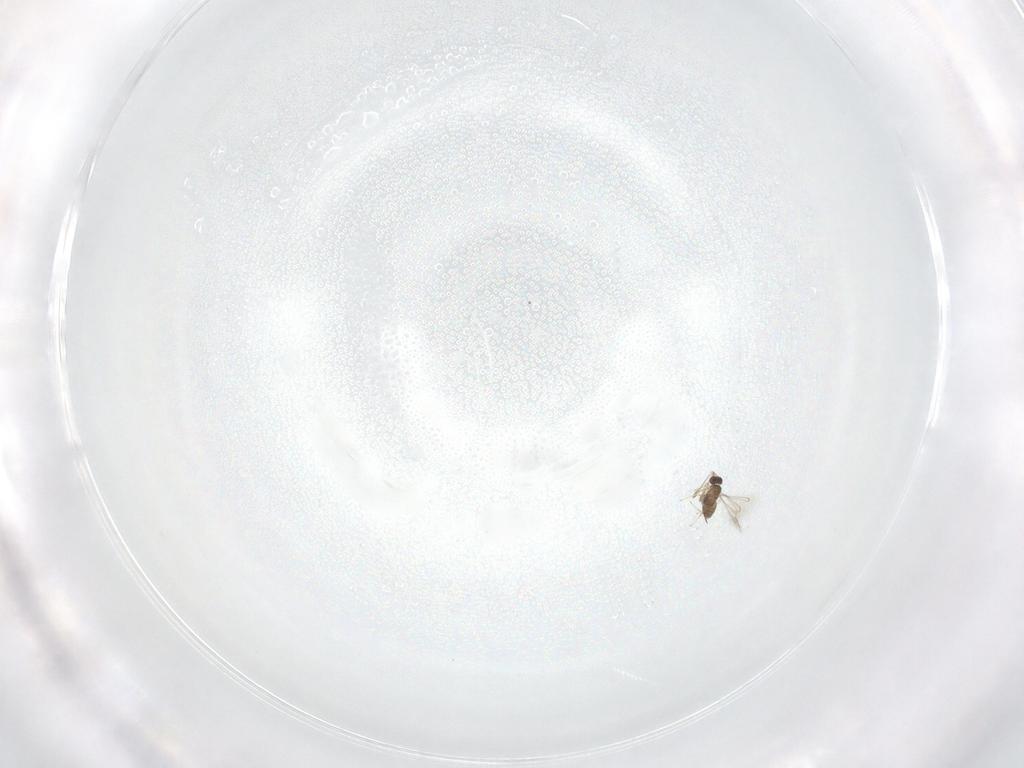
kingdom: Animalia
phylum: Arthropoda
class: Insecta
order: Hymenoptera
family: Mymaridae
